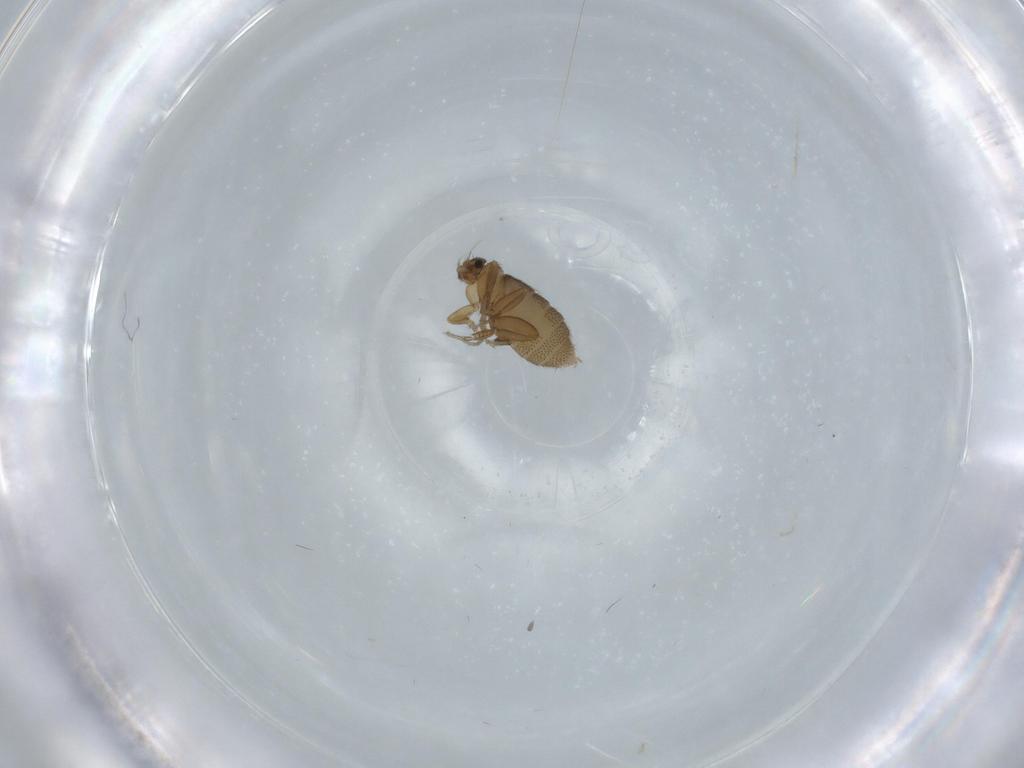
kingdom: Animalia
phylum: Arthropoda
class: Insecta
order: Diptera
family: Phoridae
